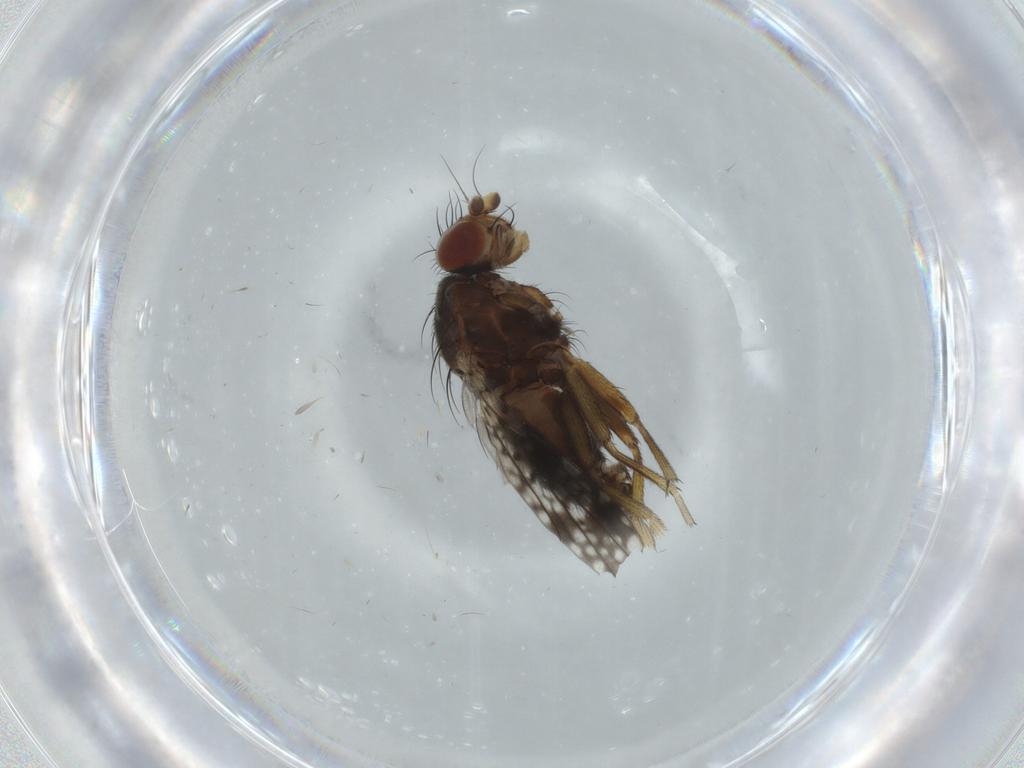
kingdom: Animalia
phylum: Arthropoda
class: Insecta
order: Diptera
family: Tephritidae
